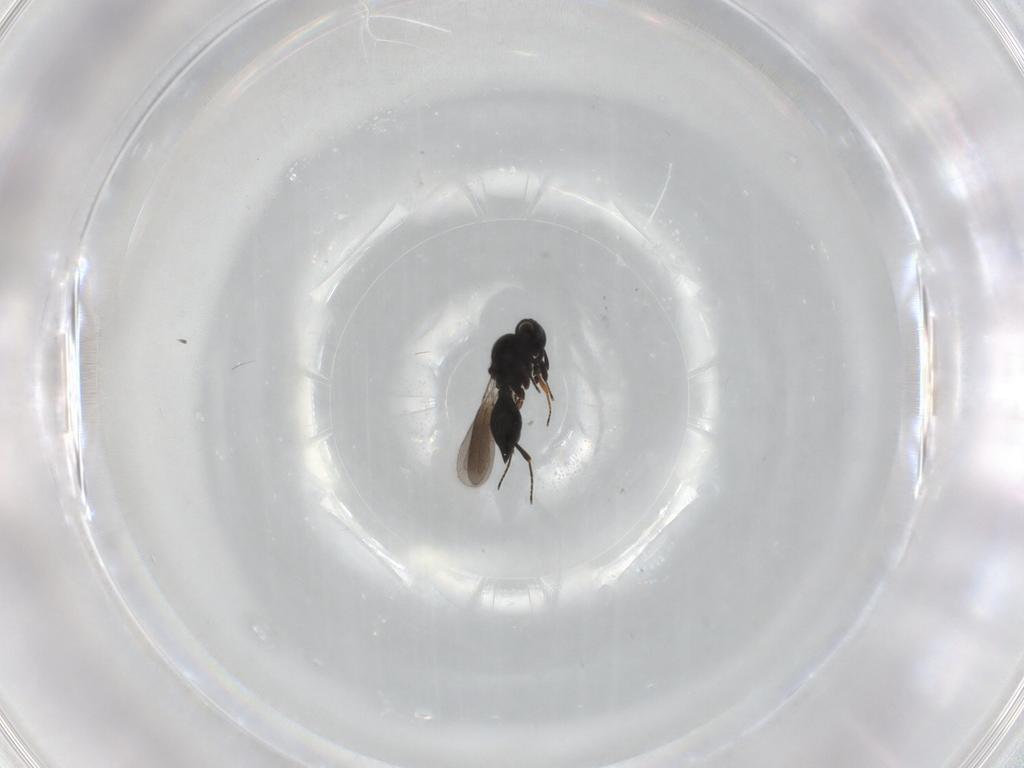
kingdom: Animalia
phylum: Arthropoda
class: Insecta
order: Hymenoptera
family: Platygastridae
